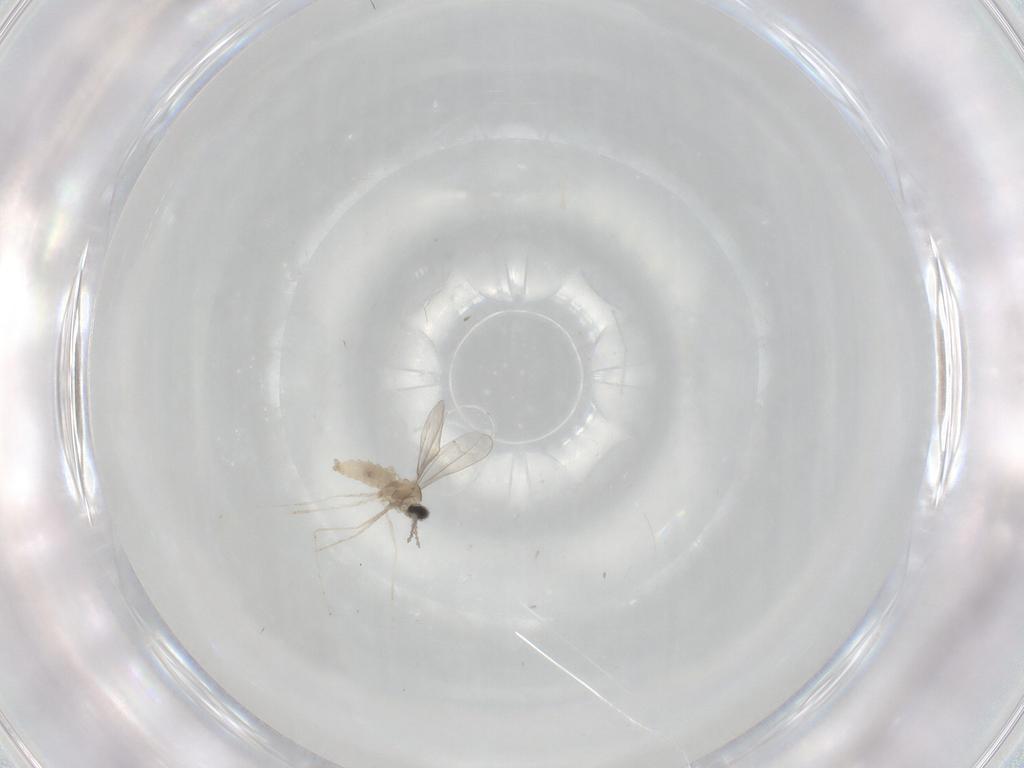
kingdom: Animalia
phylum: Arthropoda
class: Insecta
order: Diptera
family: Cecidomyiidae
